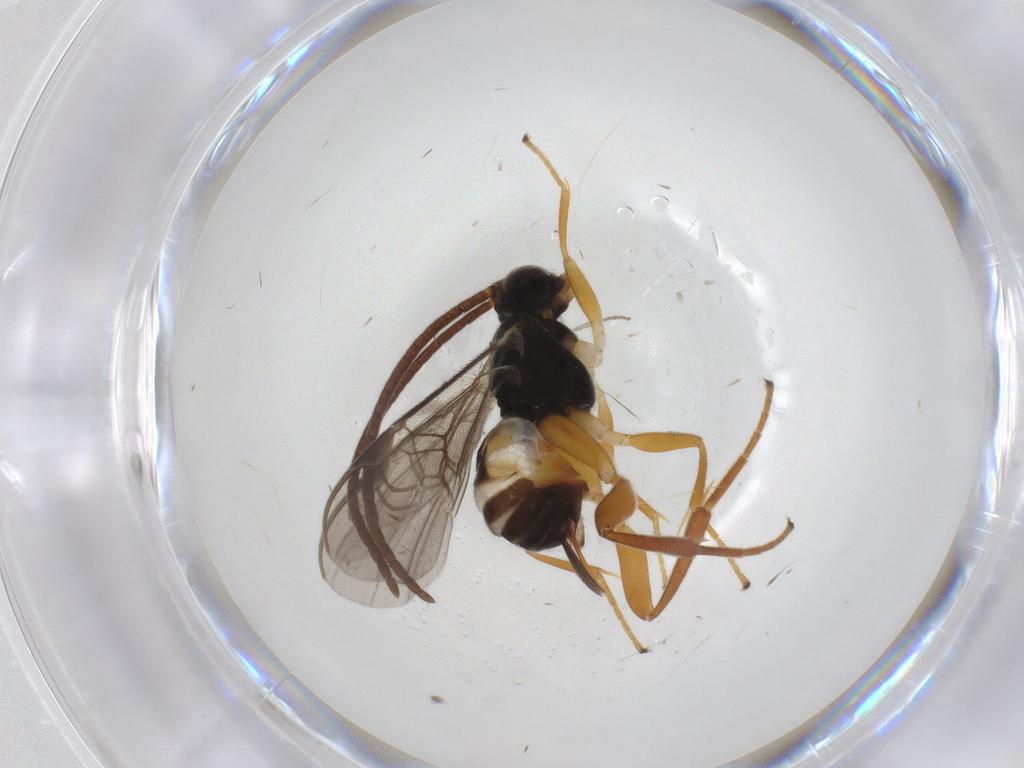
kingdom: Animalia
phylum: Arthropoda
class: Insecta
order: Hymenoptera
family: Braconidae
